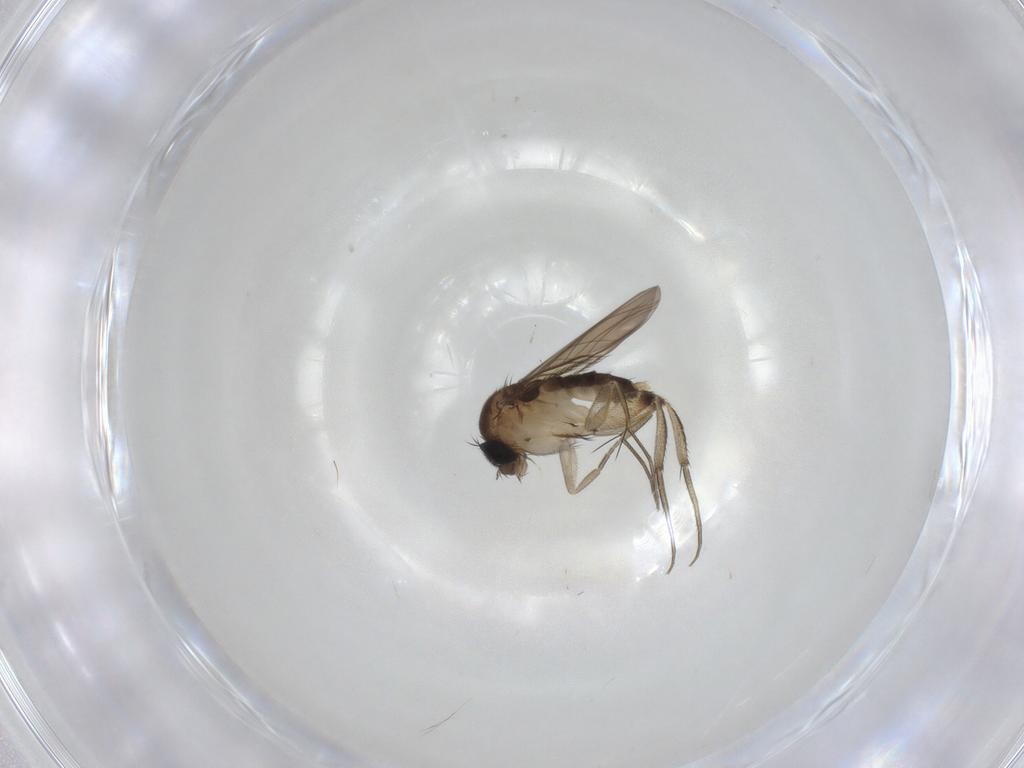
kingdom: Animalia
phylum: Arthropoda
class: Insecta
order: Diptera
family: Phoridae
